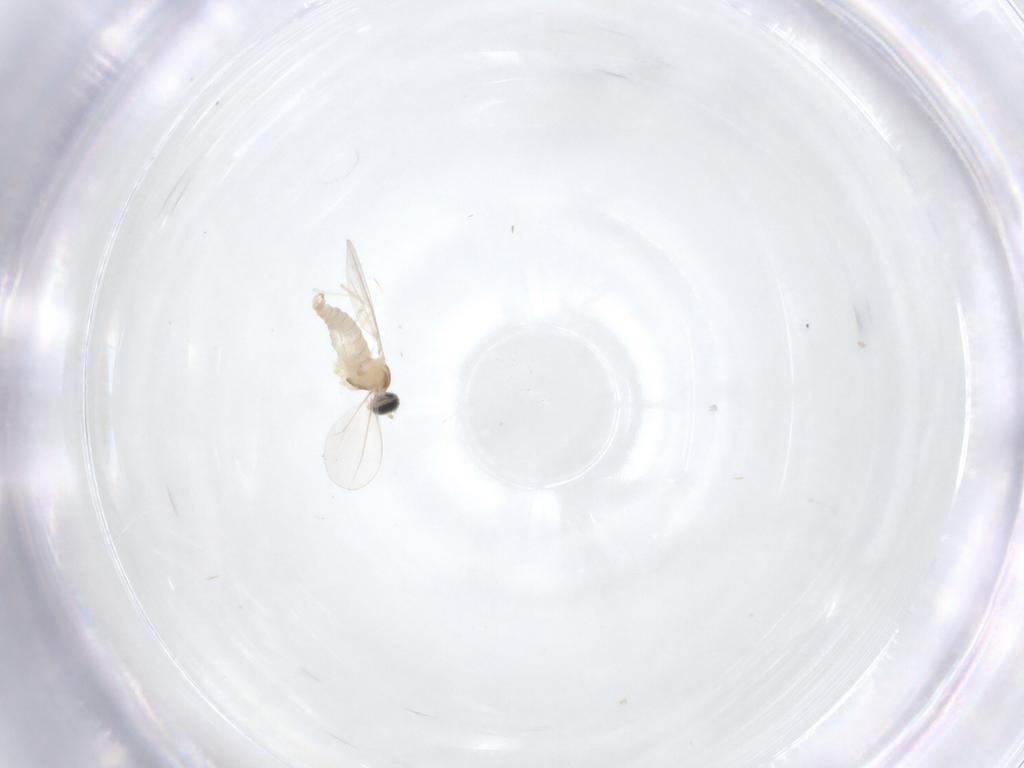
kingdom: Animalia
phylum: Arthropoda
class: Insecta
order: Diptera
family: Cecidomyiidae
